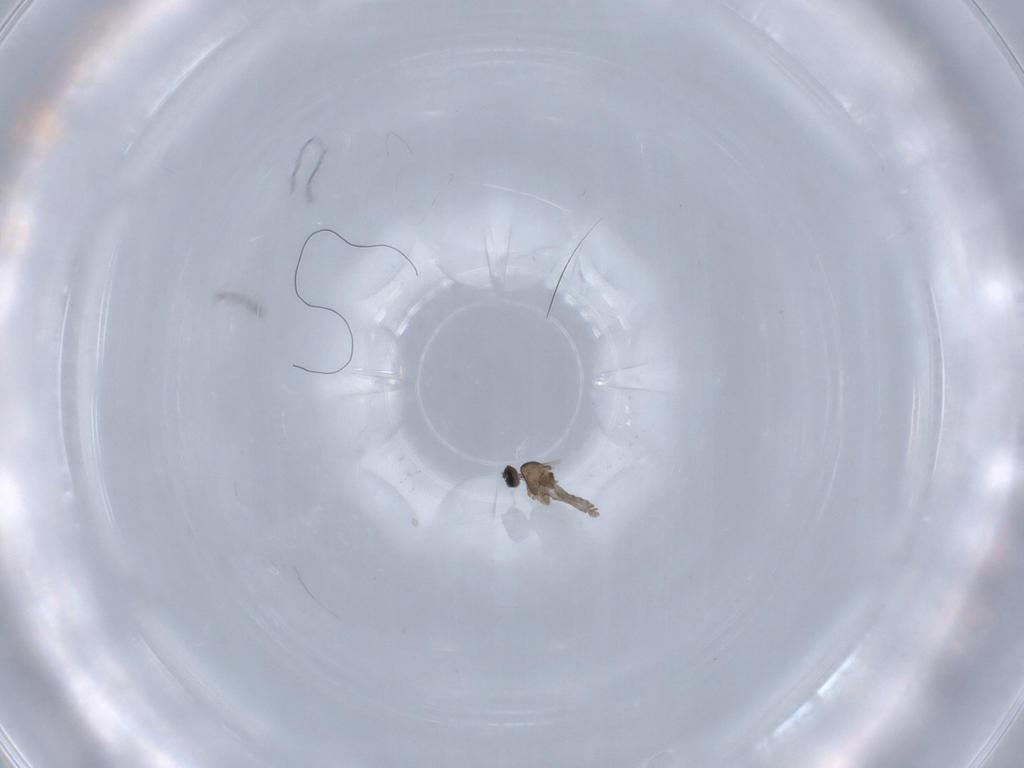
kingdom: Animalia
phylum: Arthropoda
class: Insecta
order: Diptera
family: Cecidomyiidae
